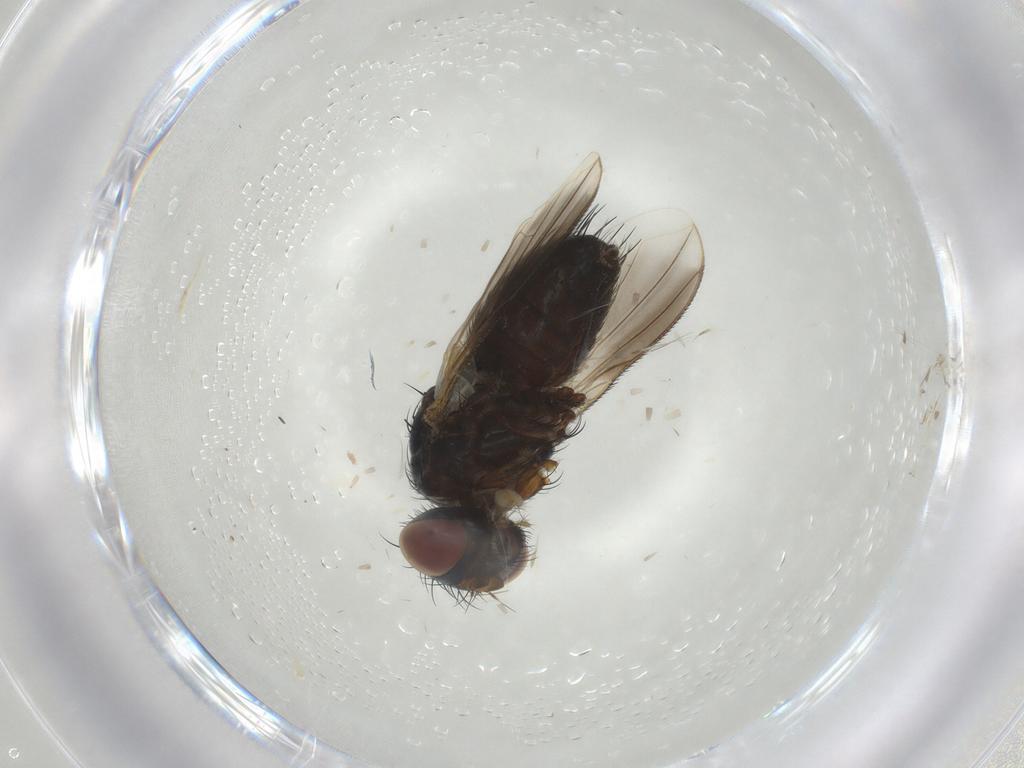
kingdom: Animalia
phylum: Arthropoda
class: Insecta
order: Diptera
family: Tachinidae
